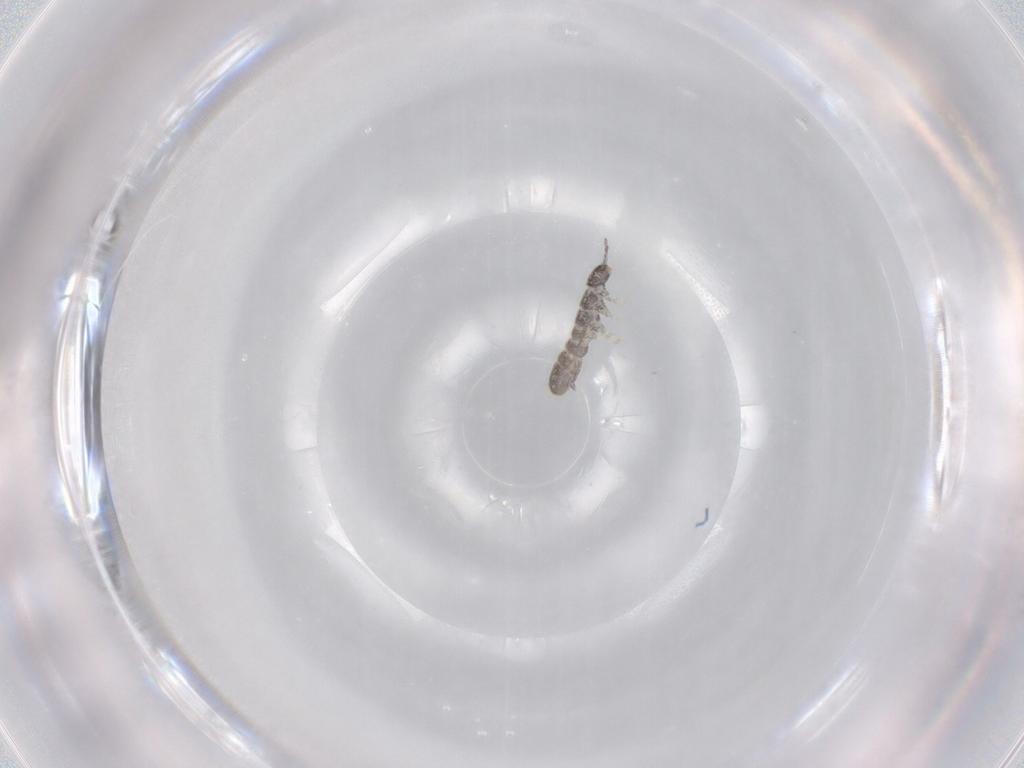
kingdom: Animalia
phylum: Arthropoda
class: Collembola
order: Entomobryomorpha
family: Isotomidae
